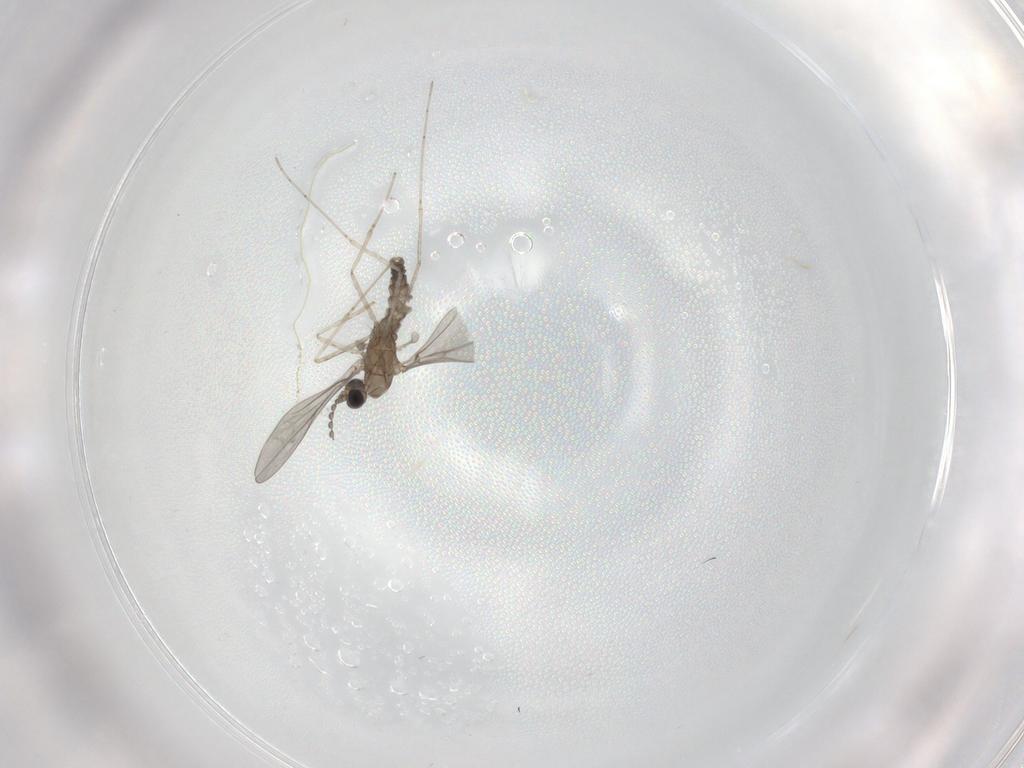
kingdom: Animalia
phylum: Arthropoda
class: Insecta
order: Diptera
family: Cecidomyiidae
